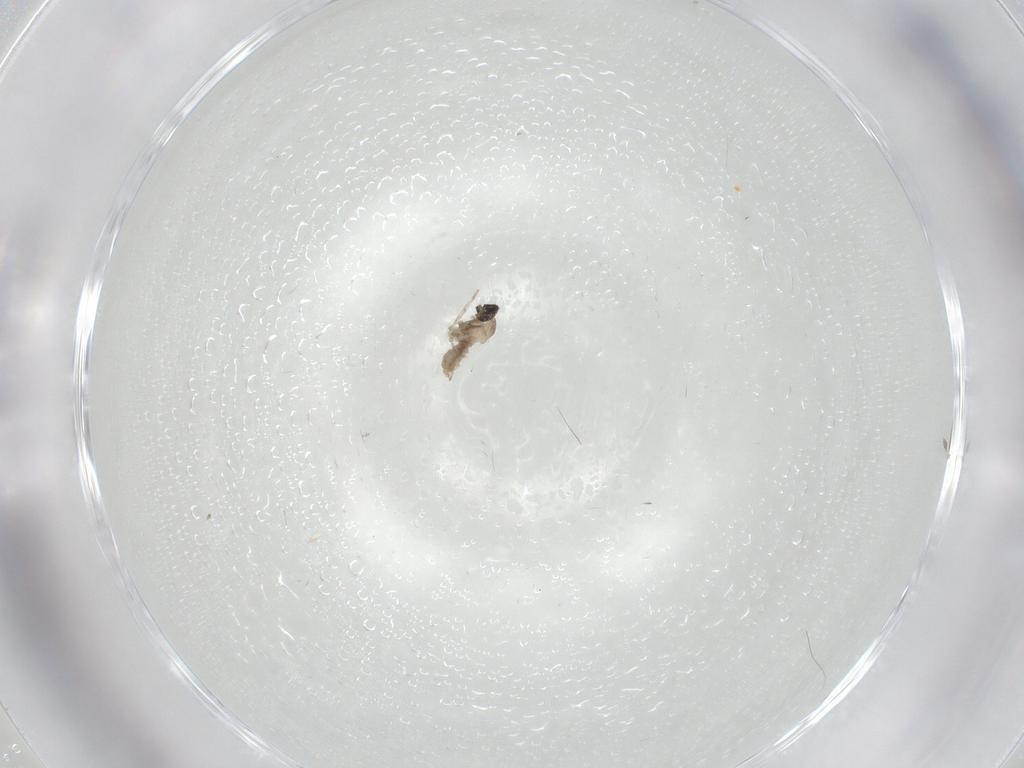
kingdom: Animalia
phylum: Arthropoda
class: Insecta
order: Diptera
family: Cecidomyiidae
